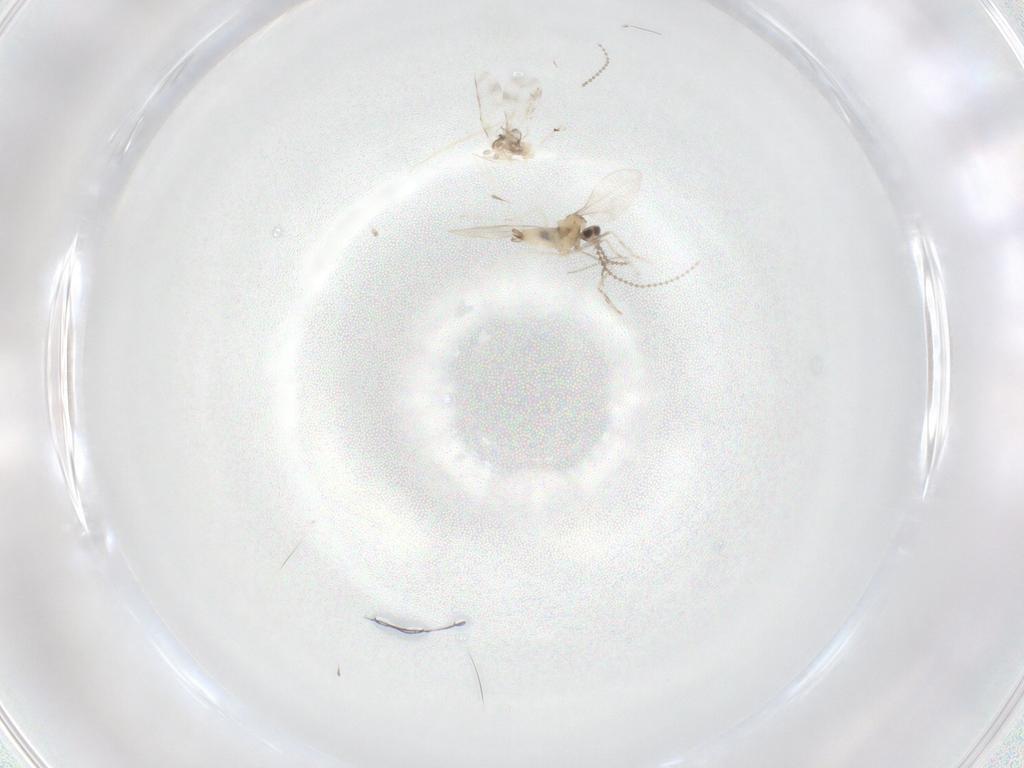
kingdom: Animalia
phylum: Arthropoda
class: Insecta
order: Diptera
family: Cecidomyiidae
